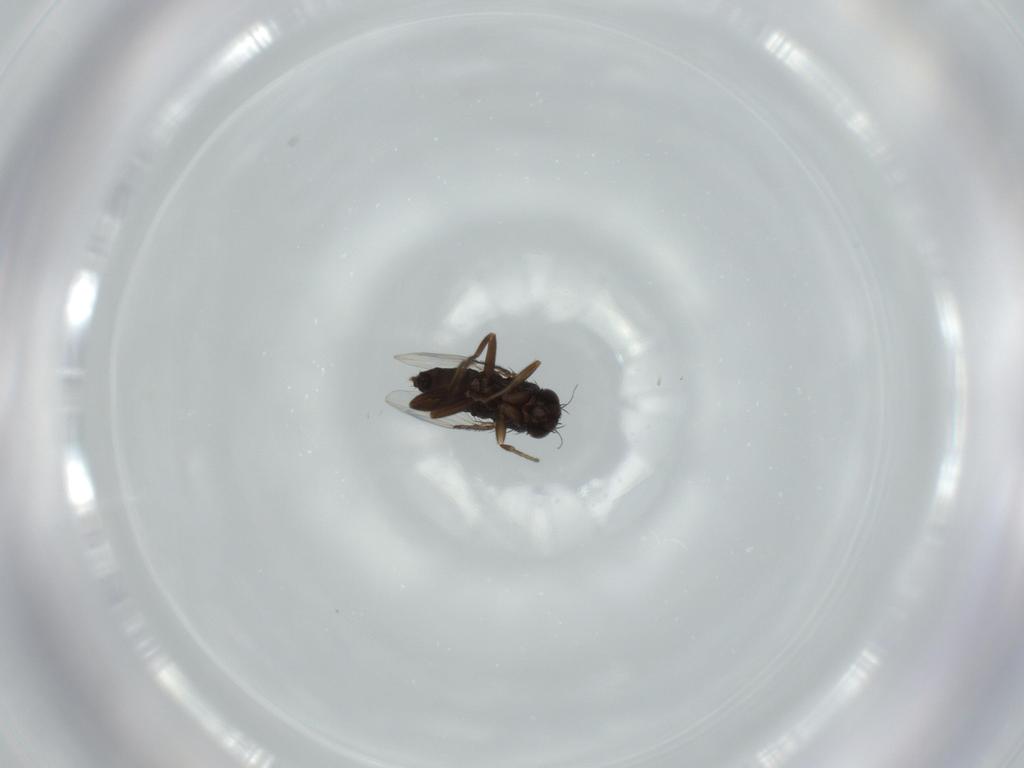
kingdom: Animalia
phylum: Arthropoda
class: Insecta
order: Diptera
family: Phoridae
